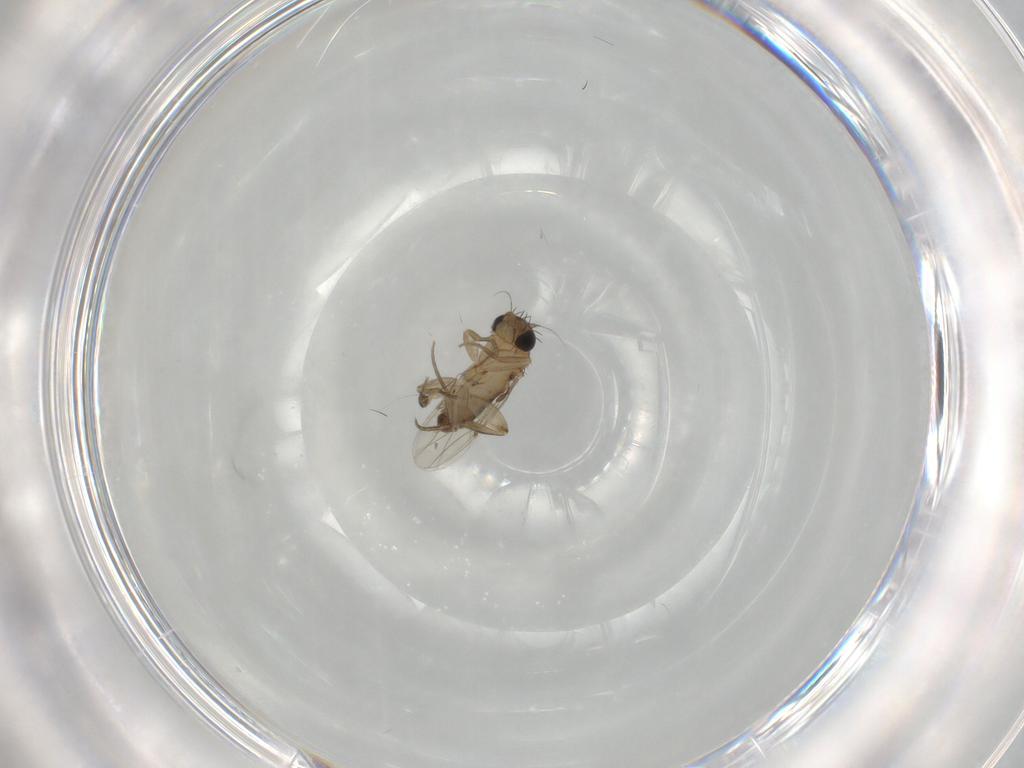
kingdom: Animalia
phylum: Arthropoda
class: Insecta
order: Diptera
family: Phoridae
